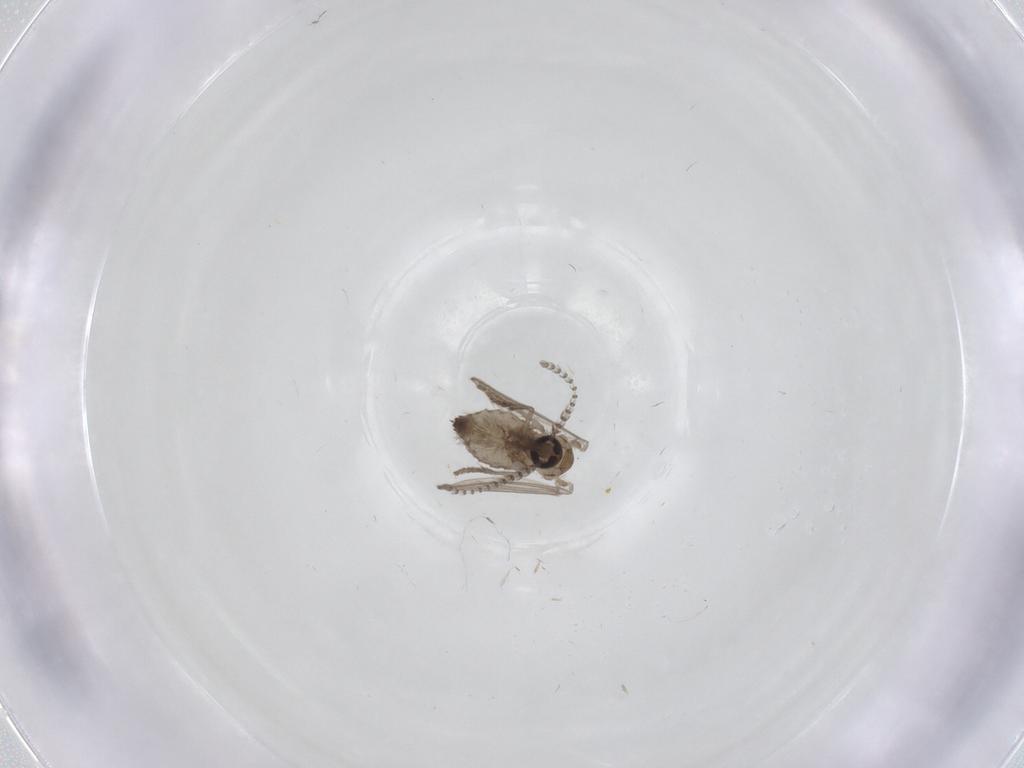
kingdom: Animalia
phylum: Arthropoda
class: Insecta
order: Diptera
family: Psychodidae
